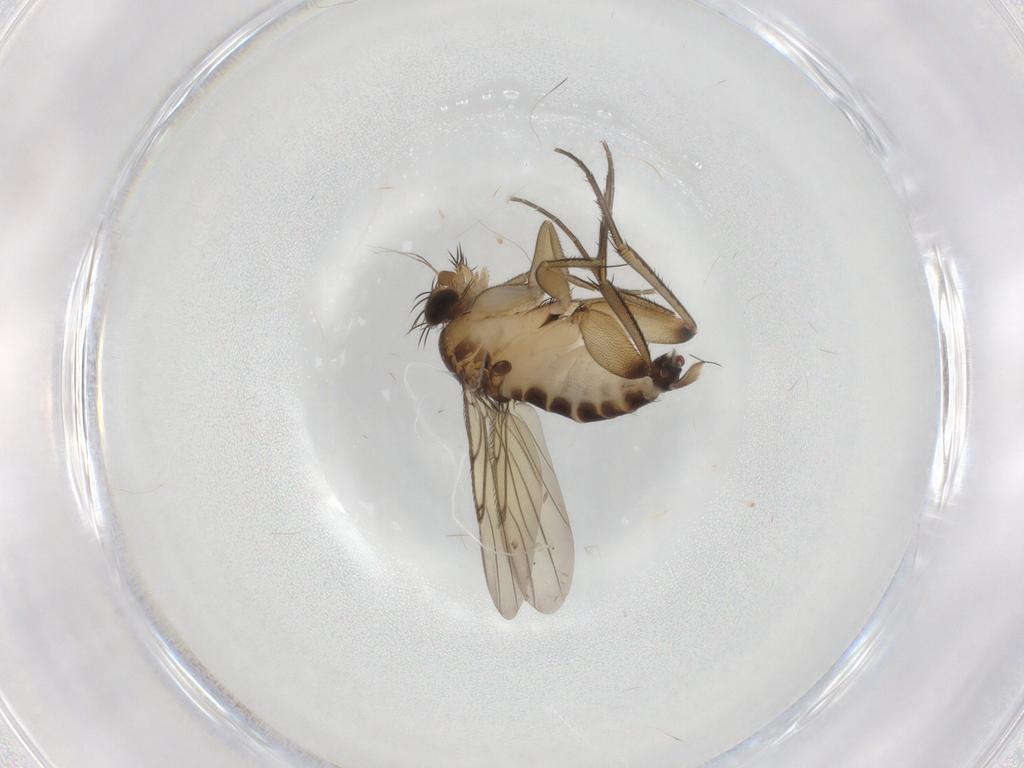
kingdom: Animalia
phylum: Arthropoda
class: Insecta
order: Diptera
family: Phoridae
